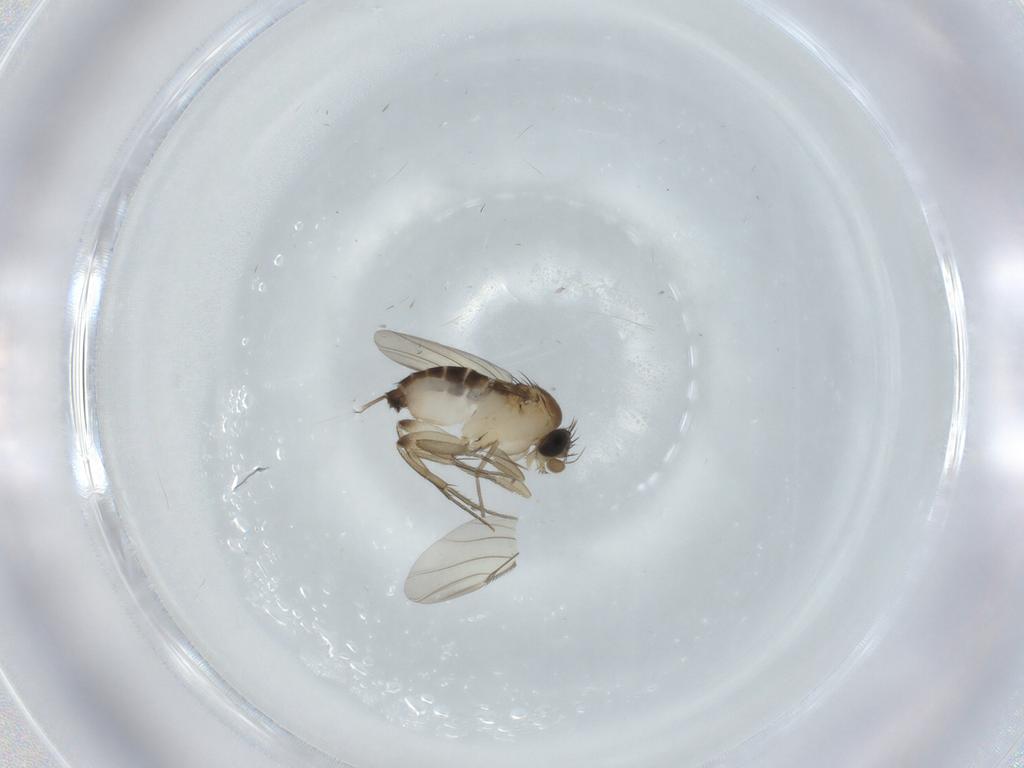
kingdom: Animalia
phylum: Arthropoda
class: Insecta
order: Diptera
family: Phoridae
